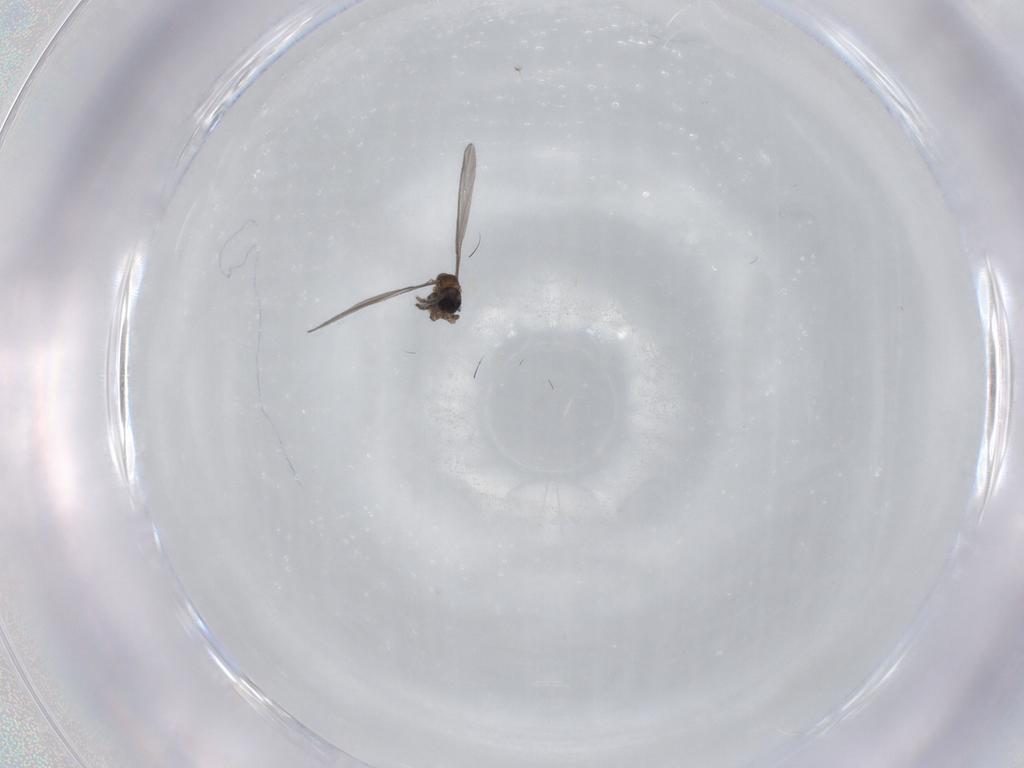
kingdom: Animalia
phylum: Arthropoda
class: Insecta
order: Diptera
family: Sciaridae
